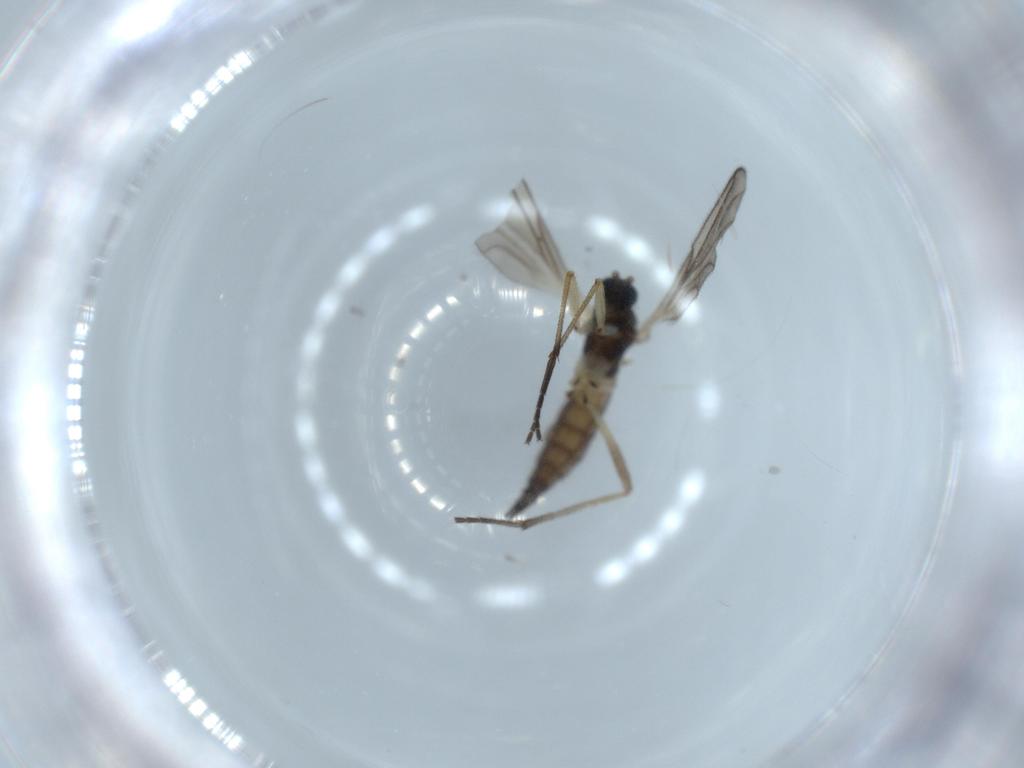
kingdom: Animalia
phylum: Arthropoda
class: Insecta
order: Diptera
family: Sciaridae
